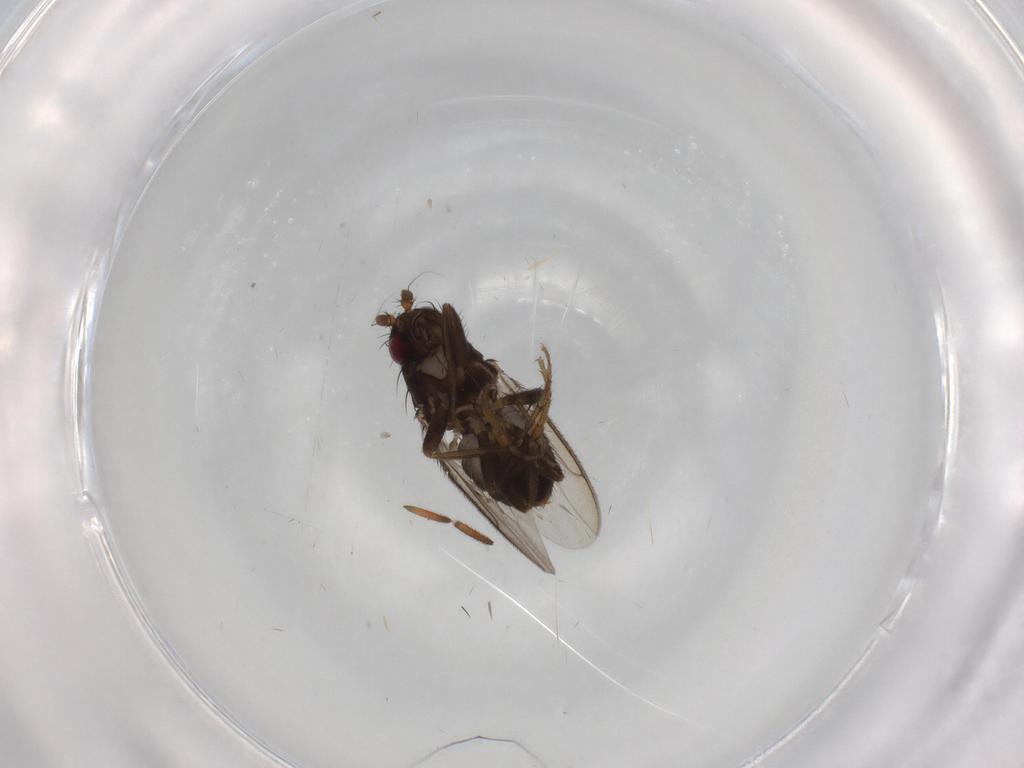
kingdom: Animalia
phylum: Arthropoda
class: Insecta
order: Diptera
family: Sphaeroceridae
